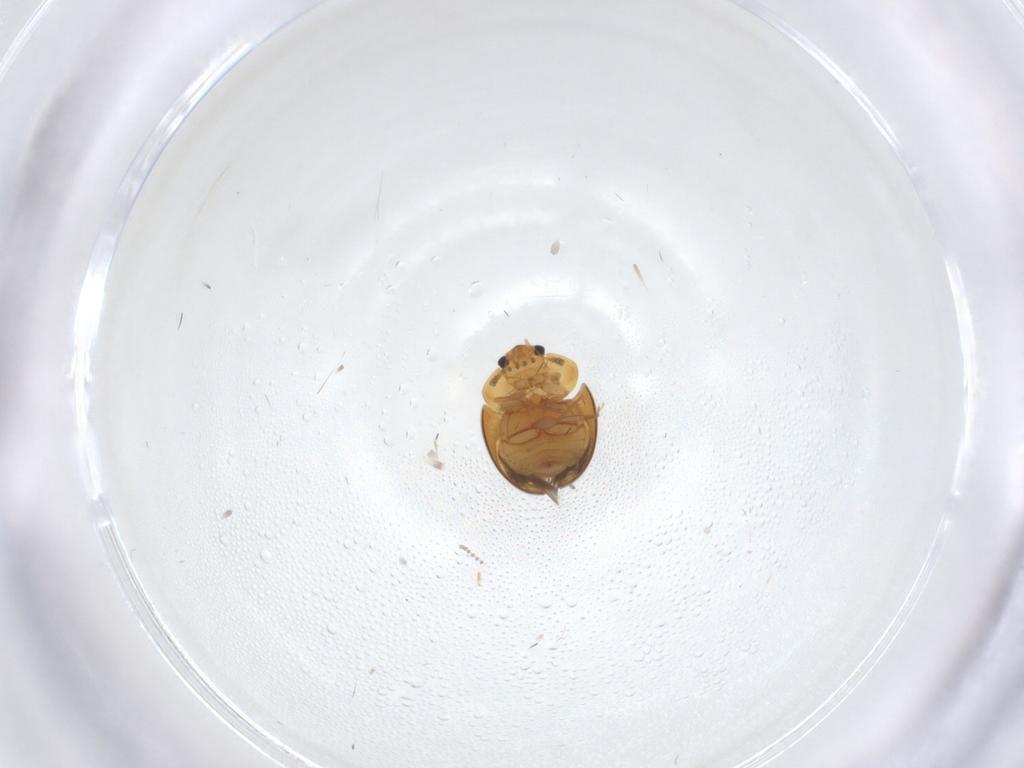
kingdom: Animalia
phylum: Arthropoda
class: Insecta
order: Coleoptera
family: Phalacridae
